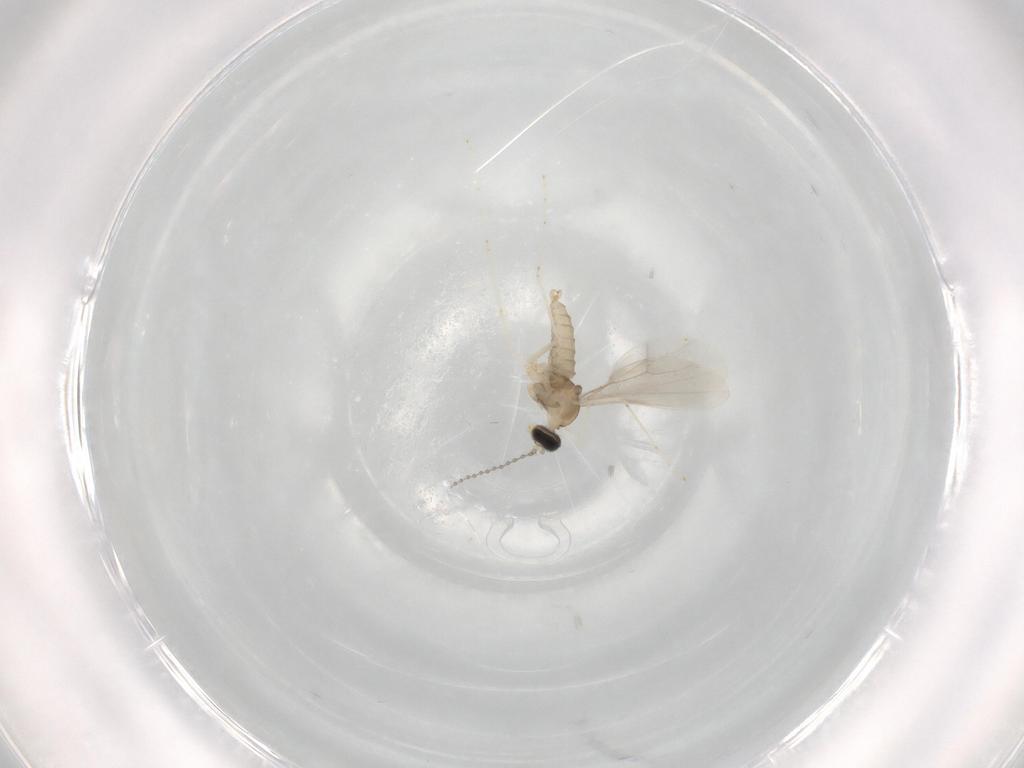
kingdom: Animalia
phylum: Arthropoda
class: Insecta
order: Diptera
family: Cecidomyiidae
